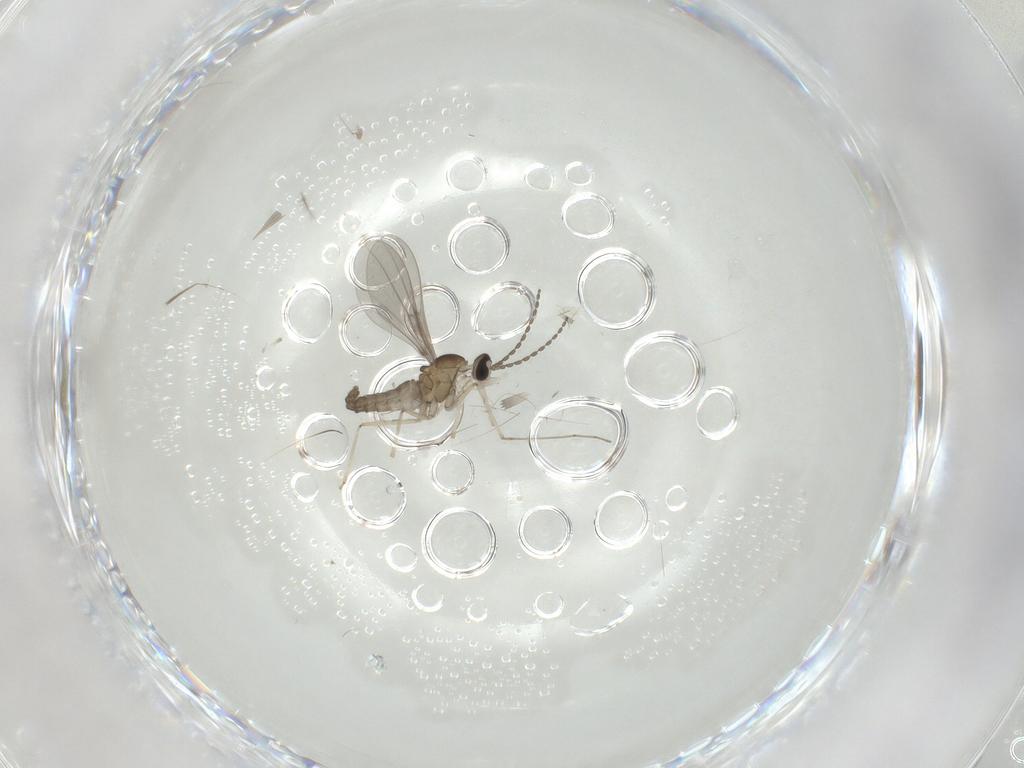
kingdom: Animalia
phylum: Arthropoda
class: Insecta
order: Diptera
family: Cecidomyiidae
